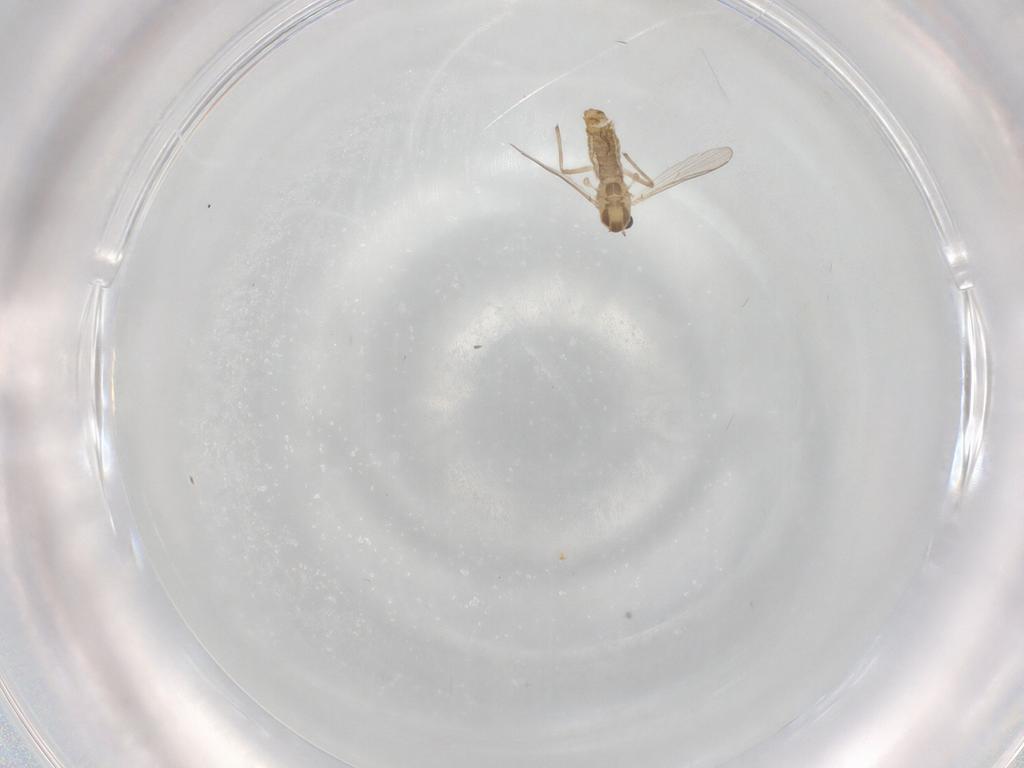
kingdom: Animalia
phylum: Arthropoda
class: Insecta
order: Diptera
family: Chironomidae
